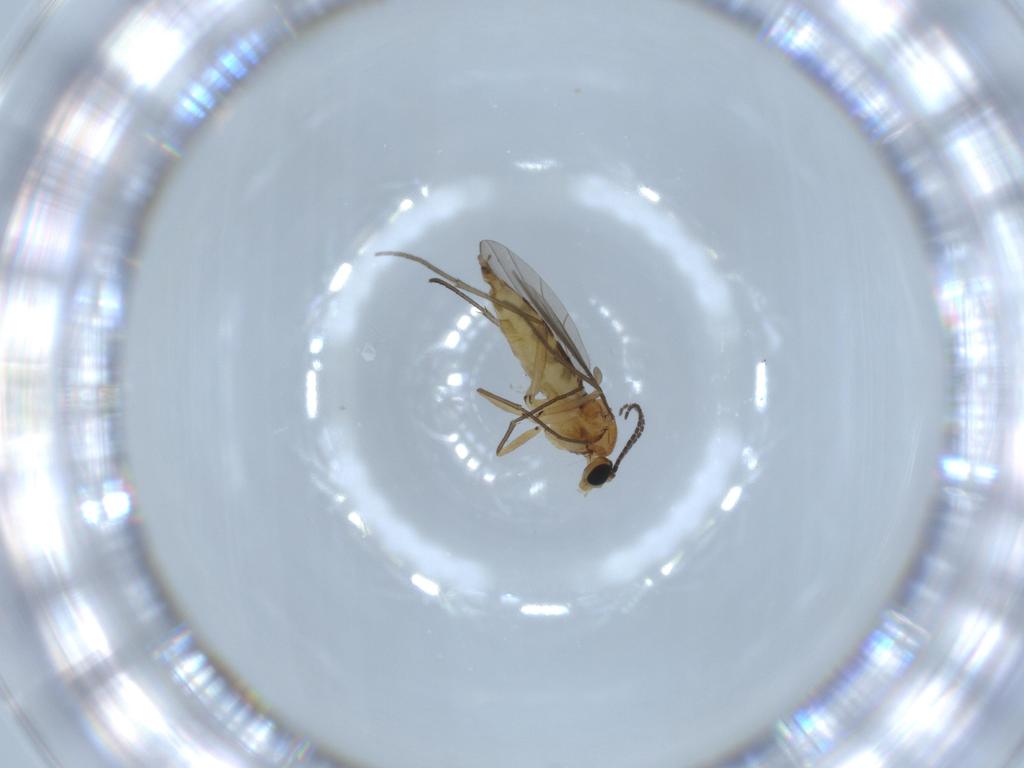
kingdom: Animalia
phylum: Arthropoda
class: Insecta
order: Diptera
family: Sciaridae
